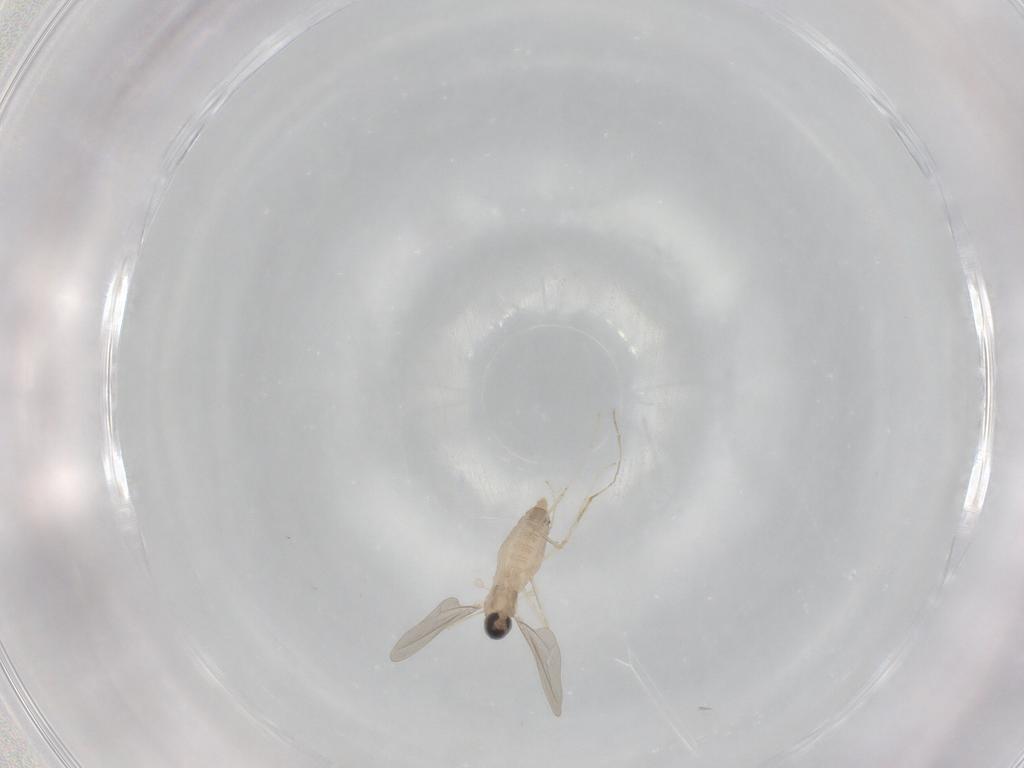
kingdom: Animalia
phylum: Arthropoda
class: Insecta
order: Diptera
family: Cecidomyiidae
